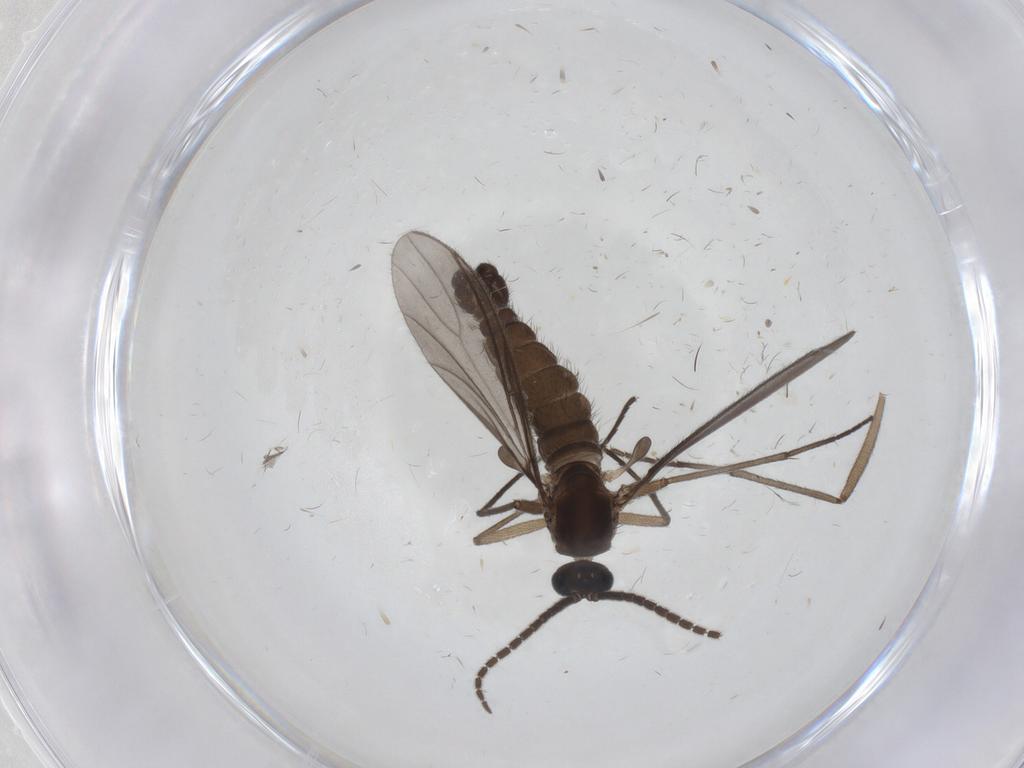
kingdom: Animalia
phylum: Arthropoda
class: Insecta
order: Diptera
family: Sciaridae
